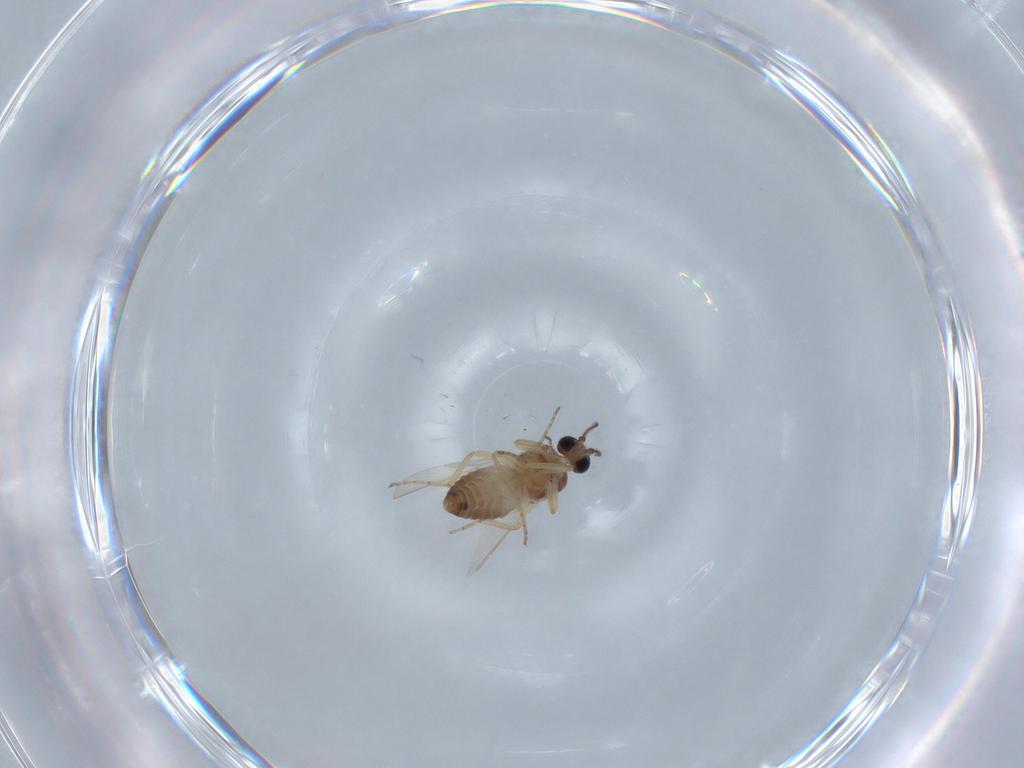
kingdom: Animalia
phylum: Arthropoda
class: Insecta
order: Diptera
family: Ceratopogonidae
